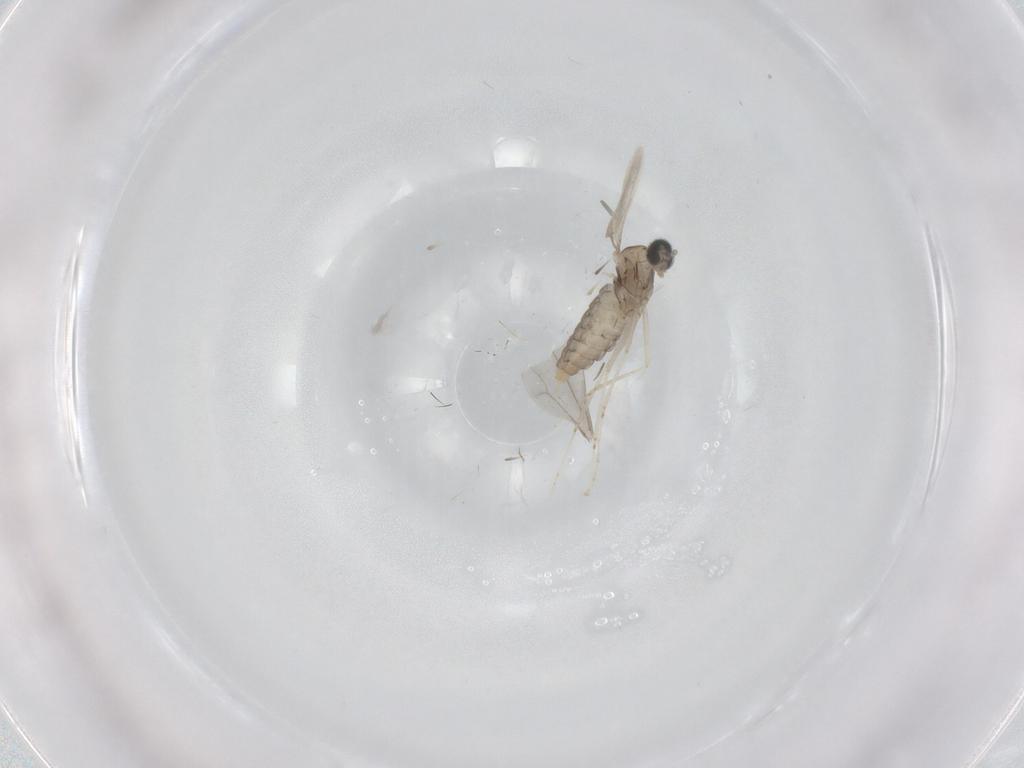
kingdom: Animalia
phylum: Arthropoda
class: Insecta
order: Diptera
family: Cecidomyiidae
